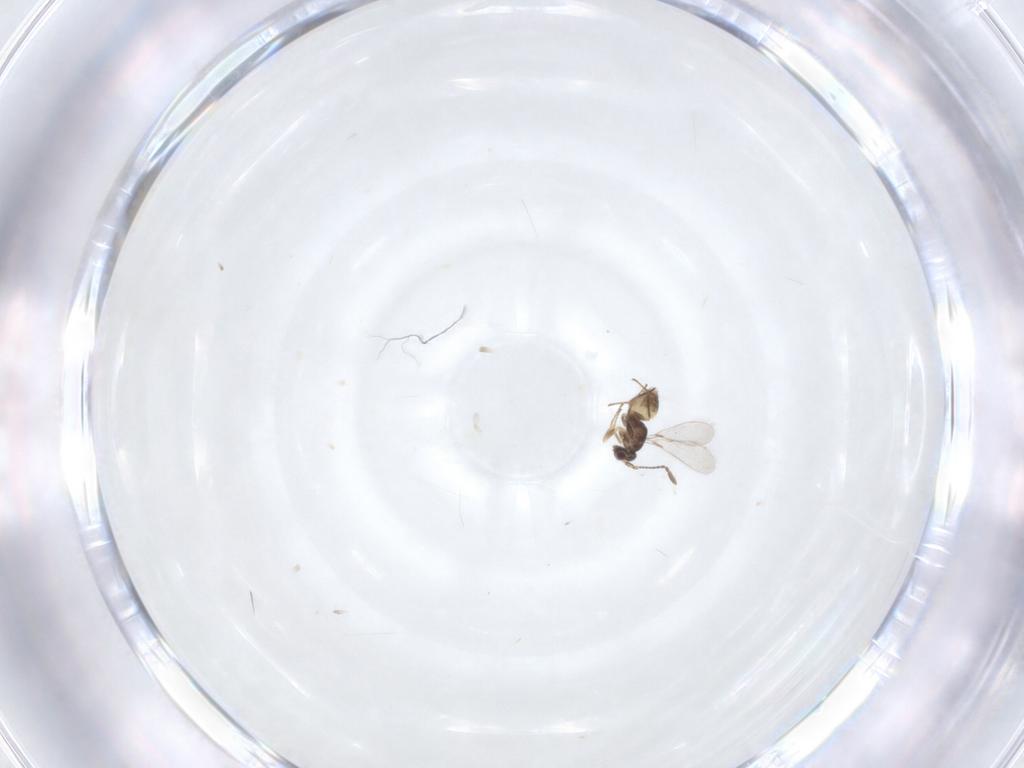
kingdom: Animalia
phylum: Arthropoda
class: Insecta
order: Hymenoptera
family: Mymaridae
